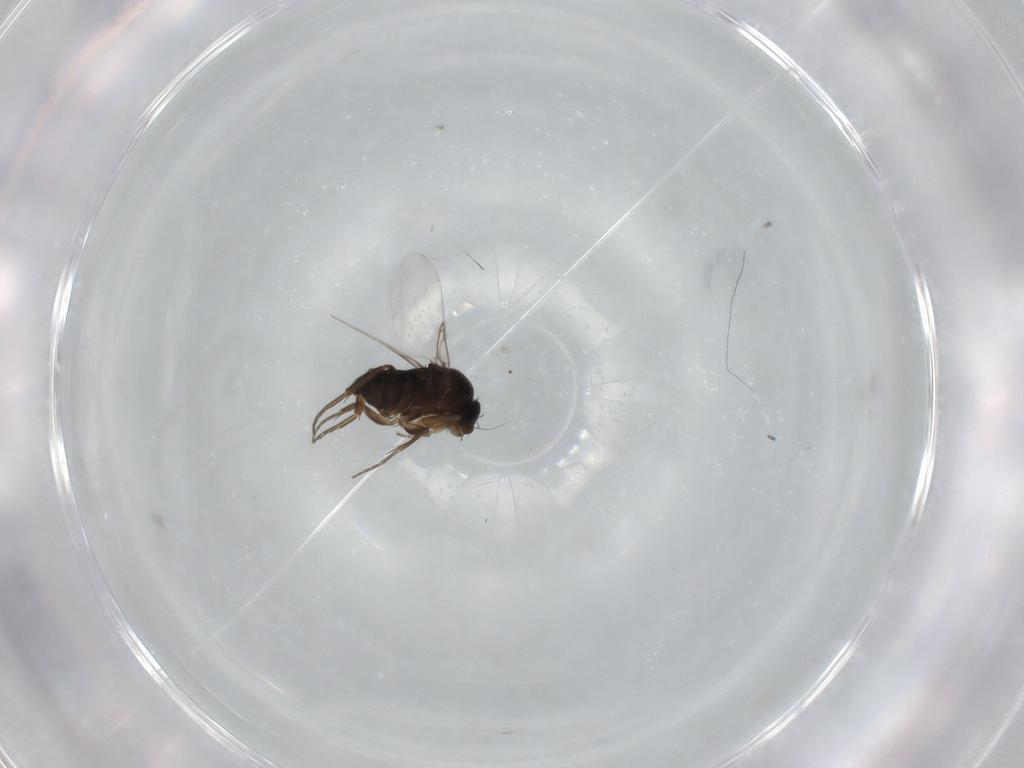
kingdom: Animalia
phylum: Arthropoda
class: Insecta
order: Diptera
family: Phoridae
